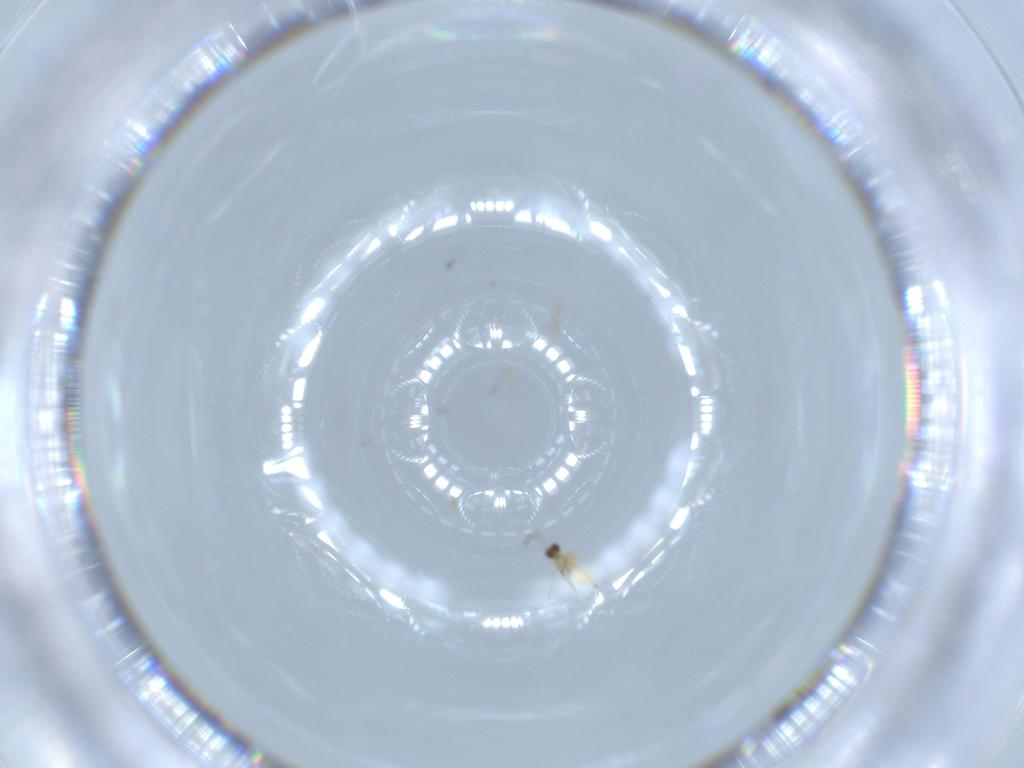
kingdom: Animalia
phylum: Arthropoda
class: Insecta
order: Hymenoptera
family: Mymaridae
